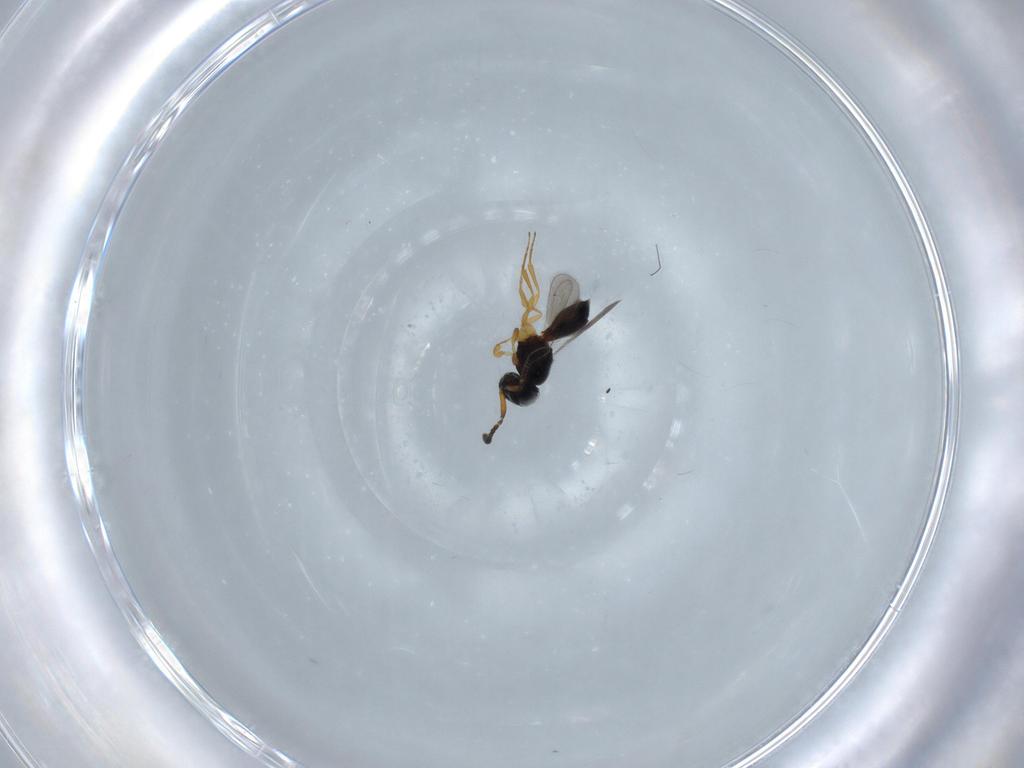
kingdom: Animalia
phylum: Arthropoda
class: Insecta
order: Hymenoptera
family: Scelionidae
